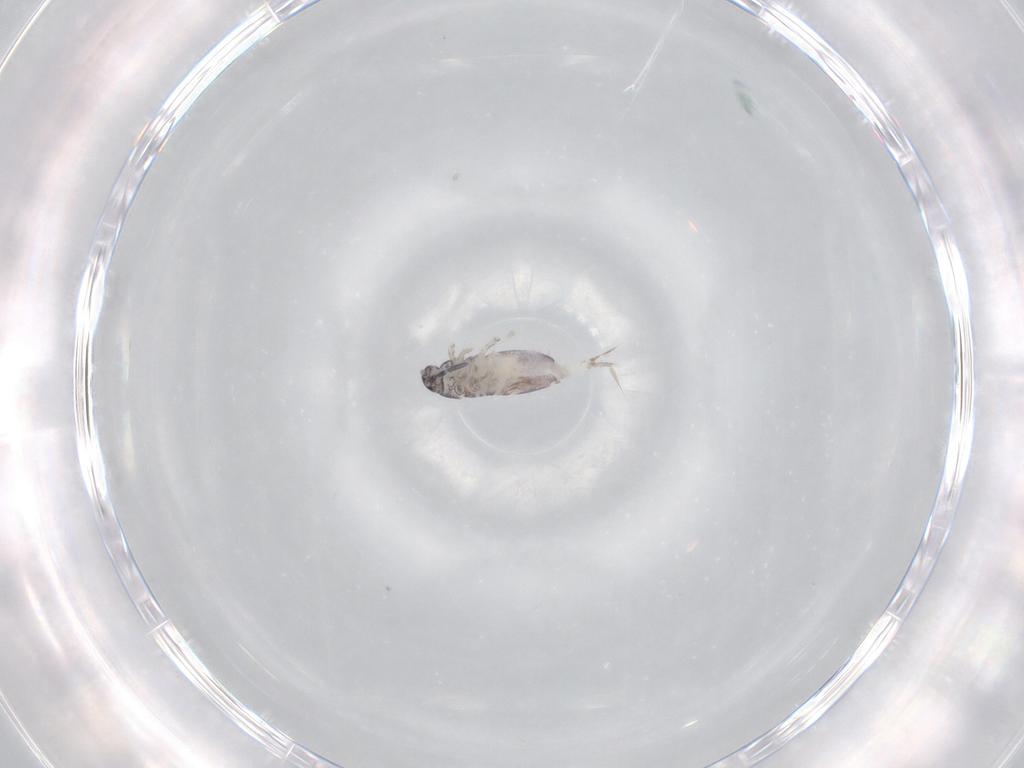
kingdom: Animalia
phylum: Arthropoda
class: Collembola
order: Entomobryomorpha
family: Entomobryidae
